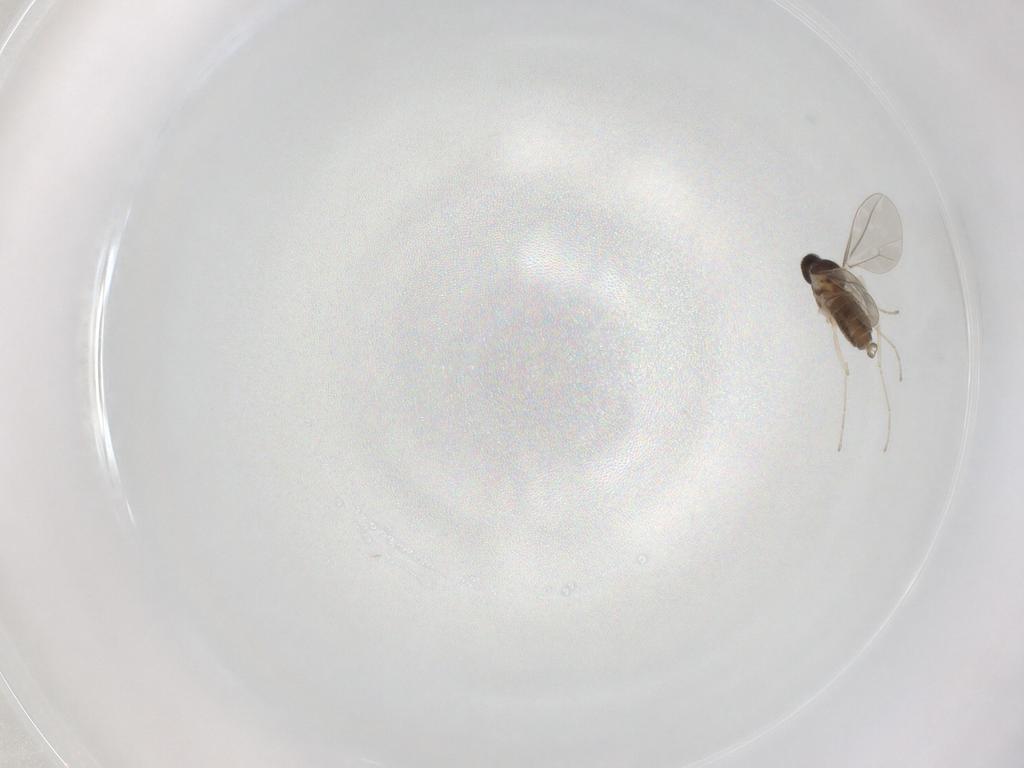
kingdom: Animalia
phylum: Arthropoda
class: Insecta
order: Diptera
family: Cecidomyiidae
